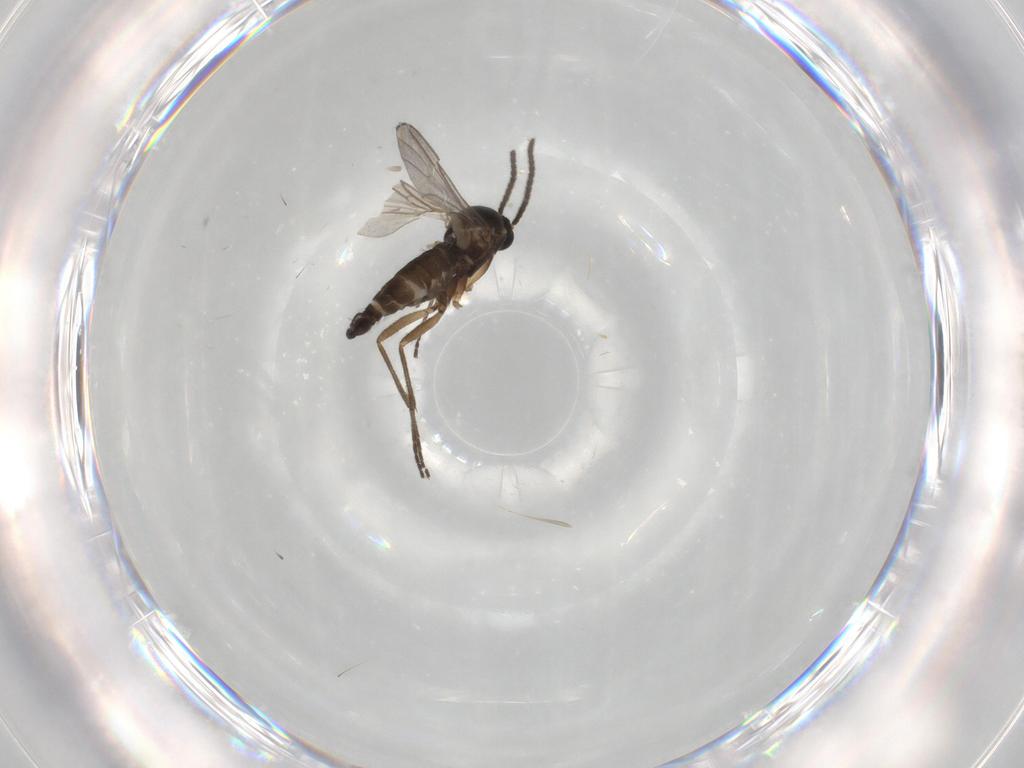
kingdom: Animalia
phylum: Arthropoda
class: Insecta
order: Diptera
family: Sciaridae
